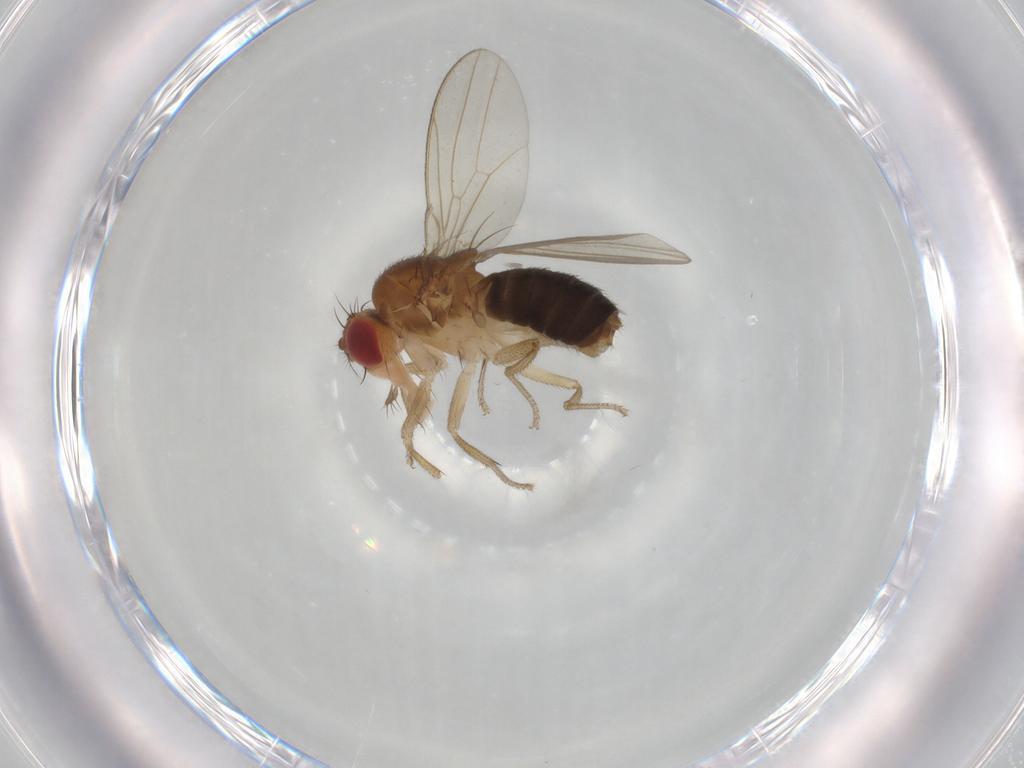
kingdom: Animalia
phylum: Arthropoda
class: Insecta
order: Diptera
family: Drosophilidae
